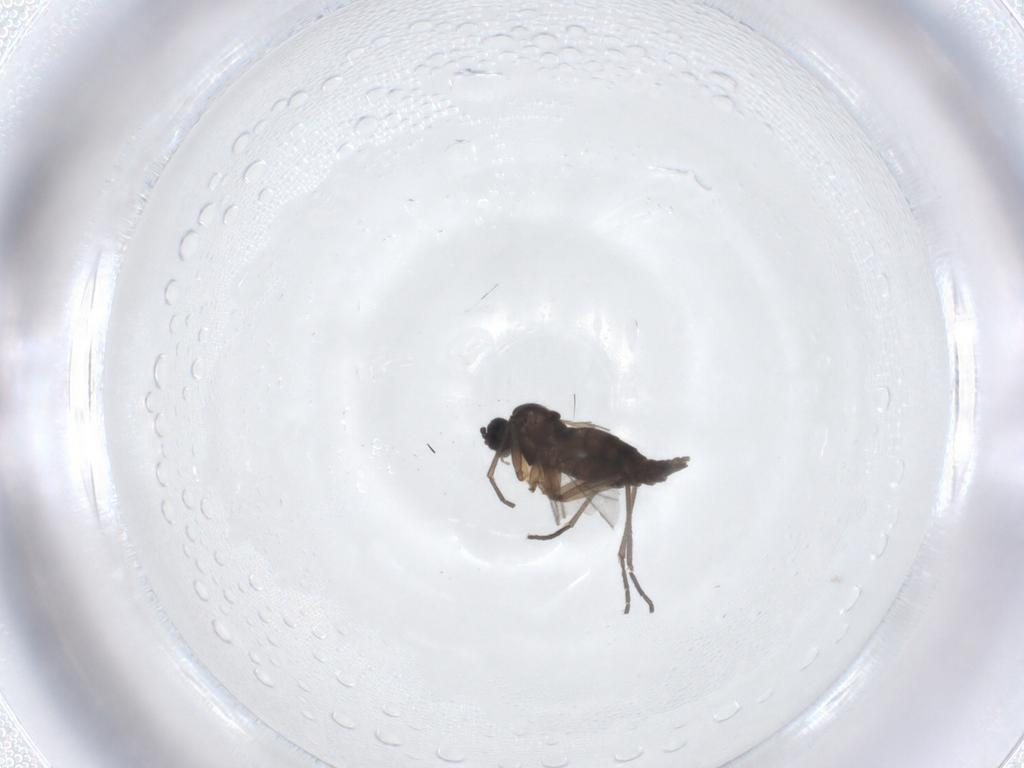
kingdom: Animalia
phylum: Arthropoda
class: Insecta
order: Diptera
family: Sciaridae
